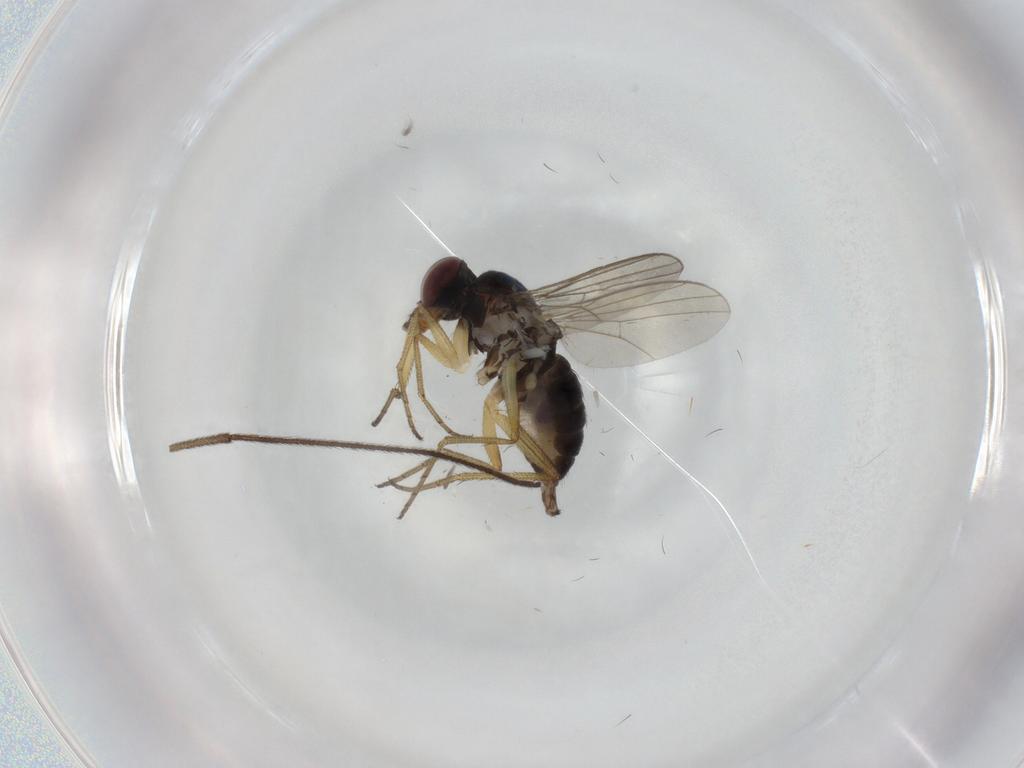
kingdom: Animalia
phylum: Arthropoda
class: Insecta
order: Diptera
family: Dolichopodidae
